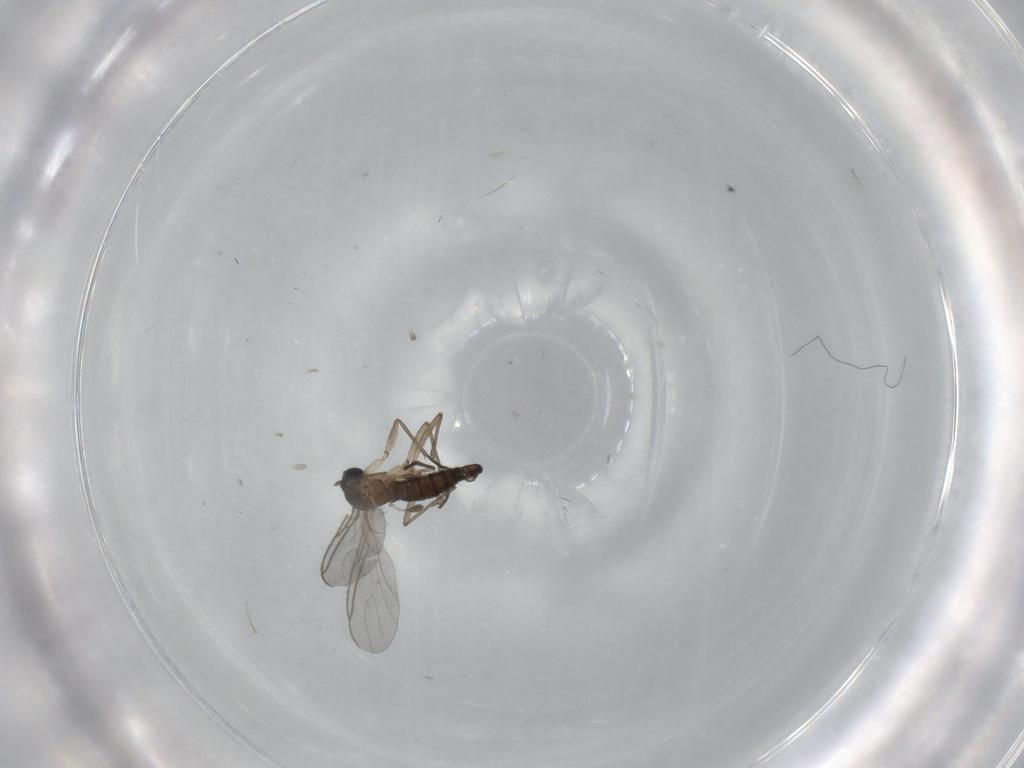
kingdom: Animalia
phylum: Arthropoda
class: Insecta
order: Diptera
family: Sciaridae
